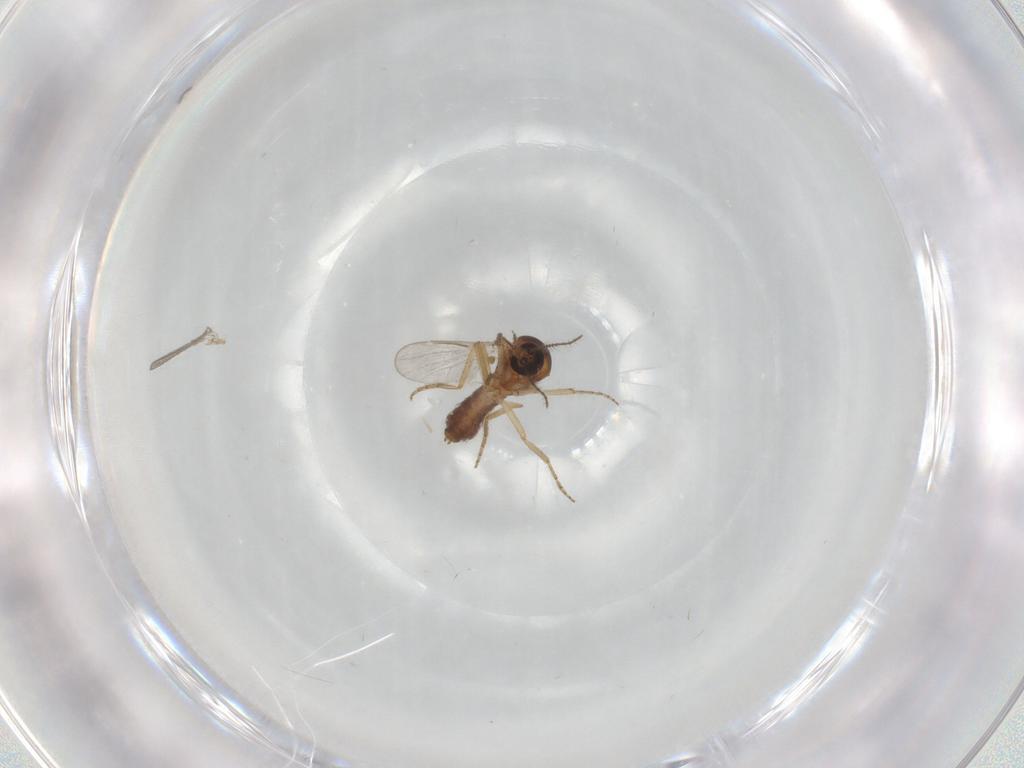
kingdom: Animalia
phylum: Arthropoda
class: Insecta
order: Diptera
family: Ceratopogonidae
